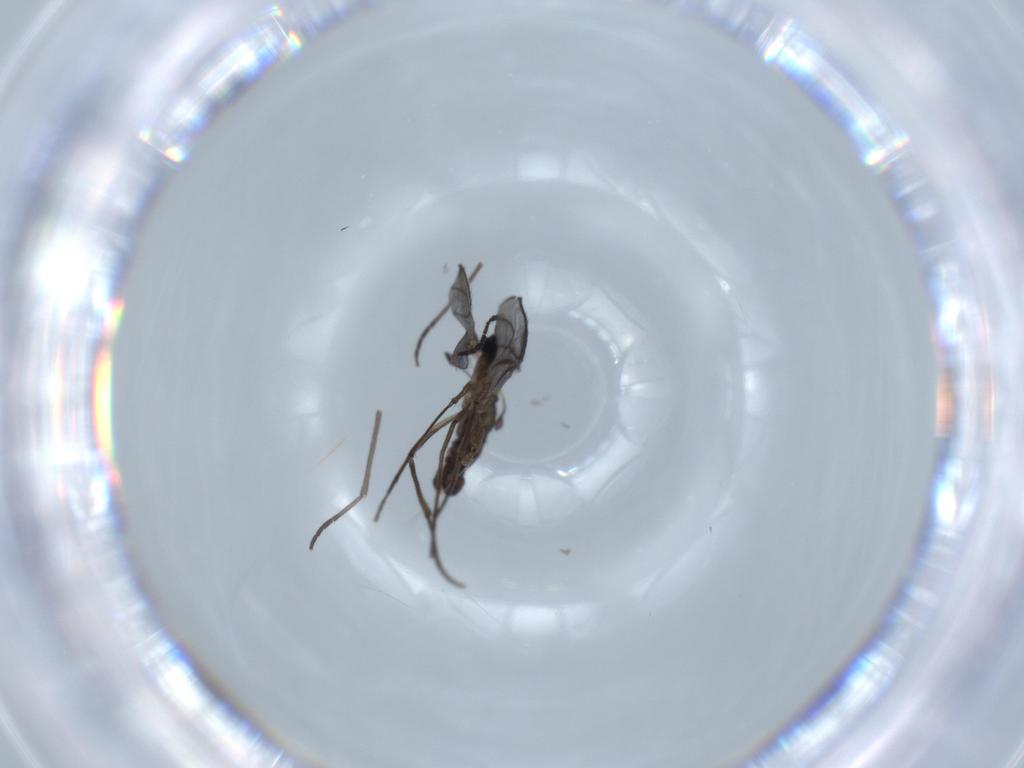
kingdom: Animalia
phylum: Arthropoda
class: Insecta
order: Diptera
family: Sciaridae
